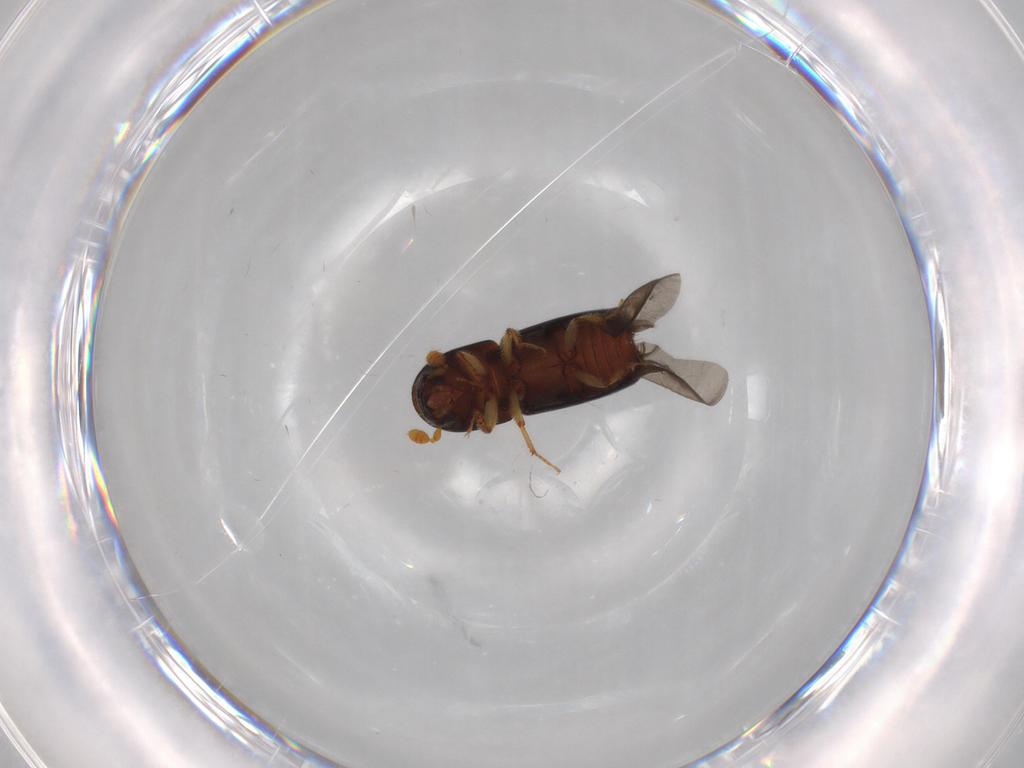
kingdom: Animalia
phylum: Arthropoda
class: Insecta
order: Coleoptera
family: Curculionidae
